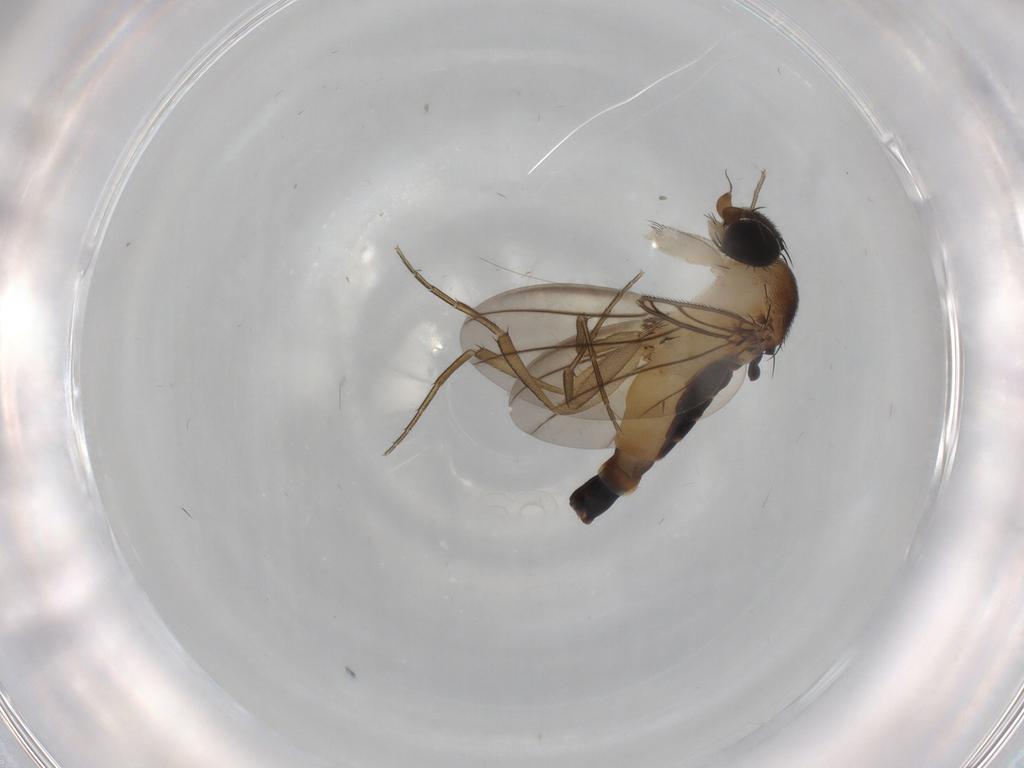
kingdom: Animalia
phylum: Arthropoda
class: Insecta
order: Diptera
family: Phoridae
